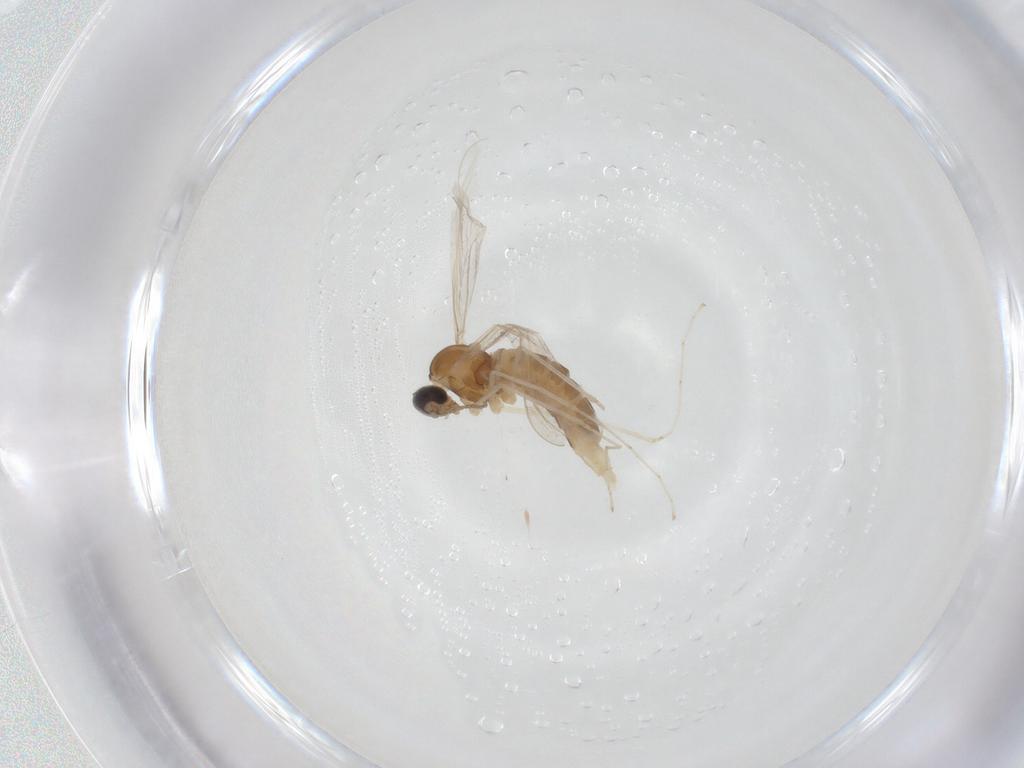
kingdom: Animalia
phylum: Arthropoda
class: Insecta
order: Diptera
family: Cecidomyiidae
